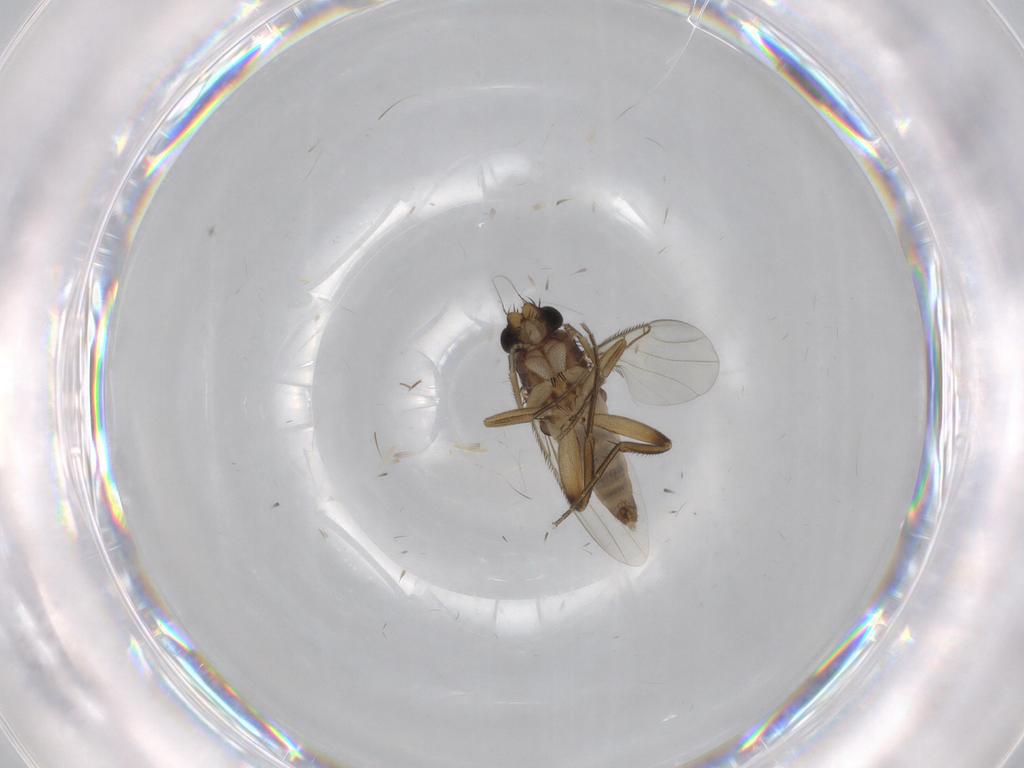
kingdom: Animalia
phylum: Arthropoda
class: Insecta
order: Diptera
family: Phoridae
